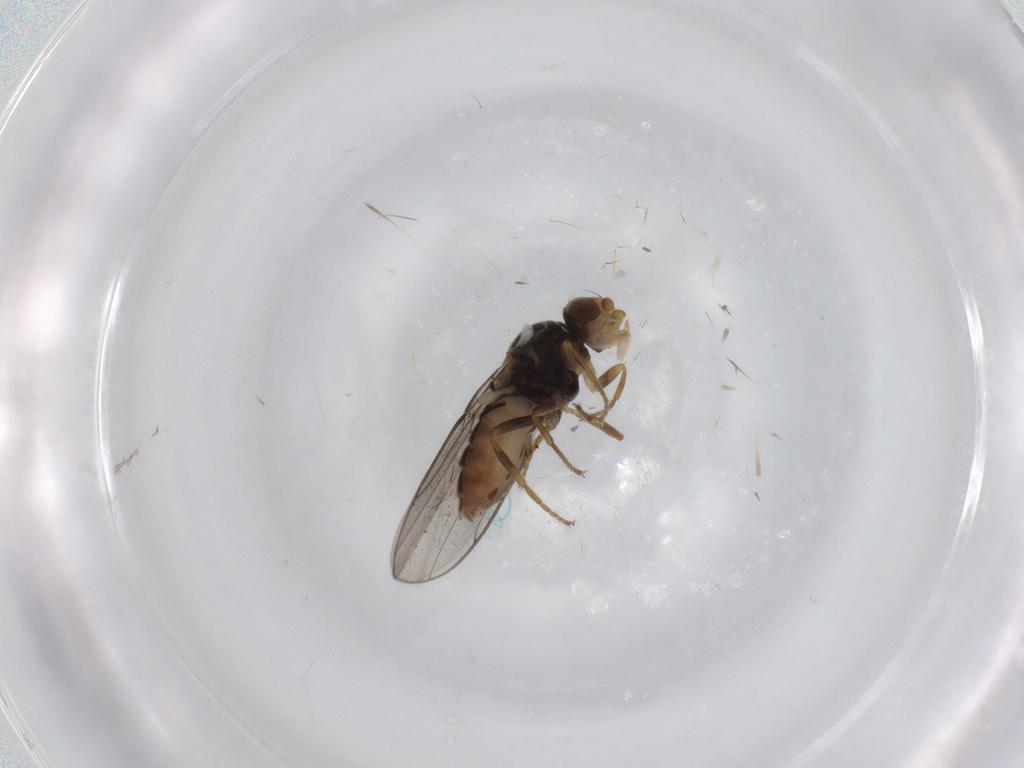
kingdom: Animalia
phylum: Arthropoda
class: Insecta
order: Diptera
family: Chloropidae
